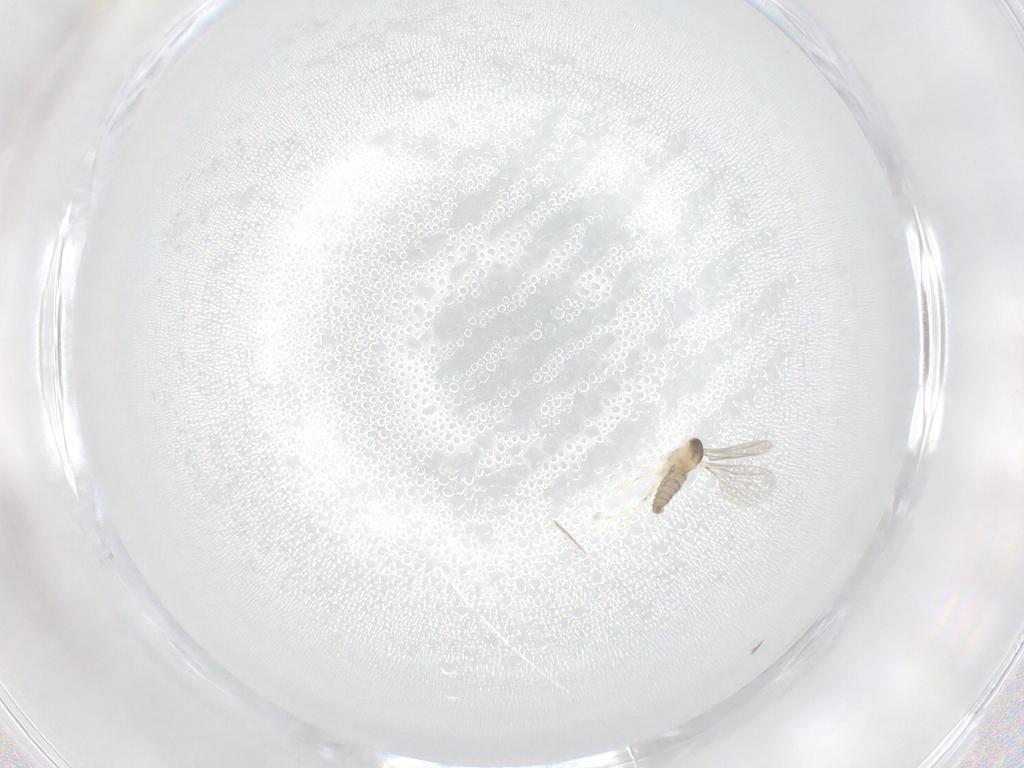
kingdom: Animalia
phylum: Arthropoda
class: Insecta
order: Diptera
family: Cecidomyiidae
